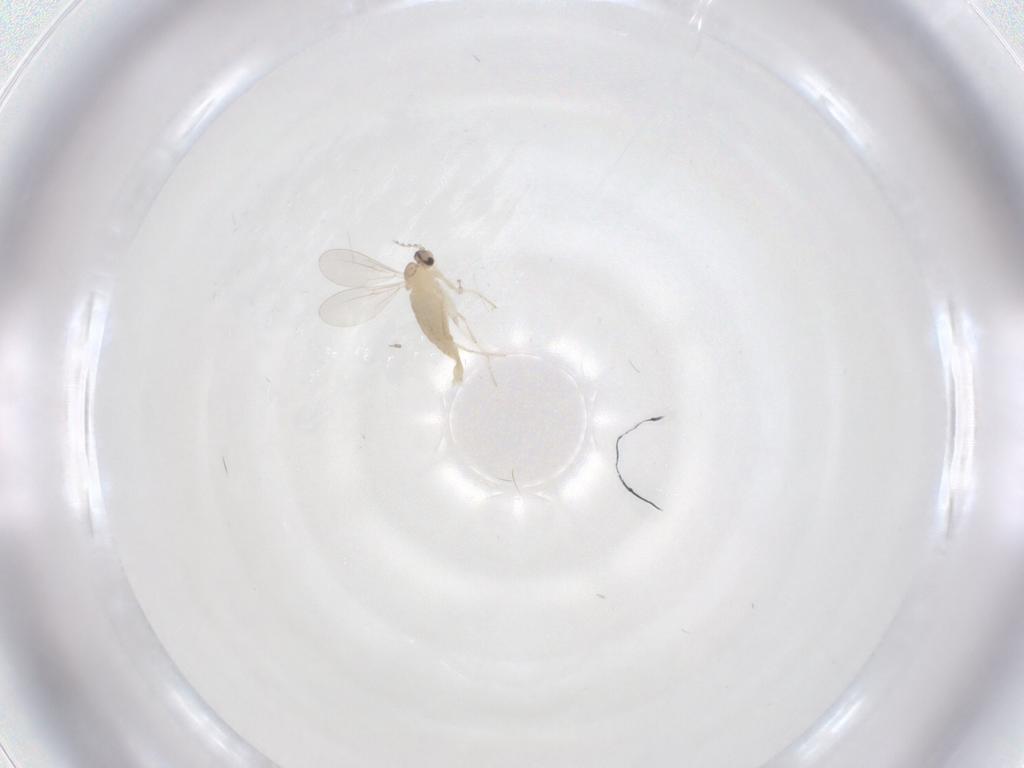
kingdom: Animalia
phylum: Arthropoda
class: Insecta
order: Diptera
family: Cecidomyiidae
